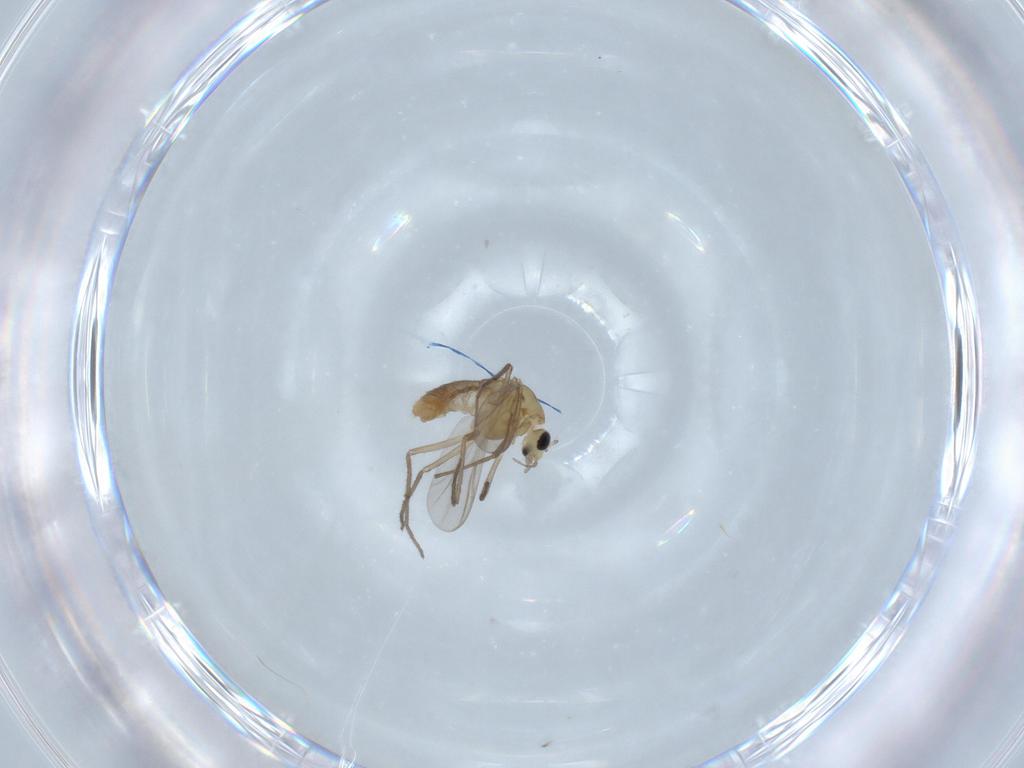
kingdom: Animalia
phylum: Arthropoda
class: Insecta
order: Diptera
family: Chironomidae
